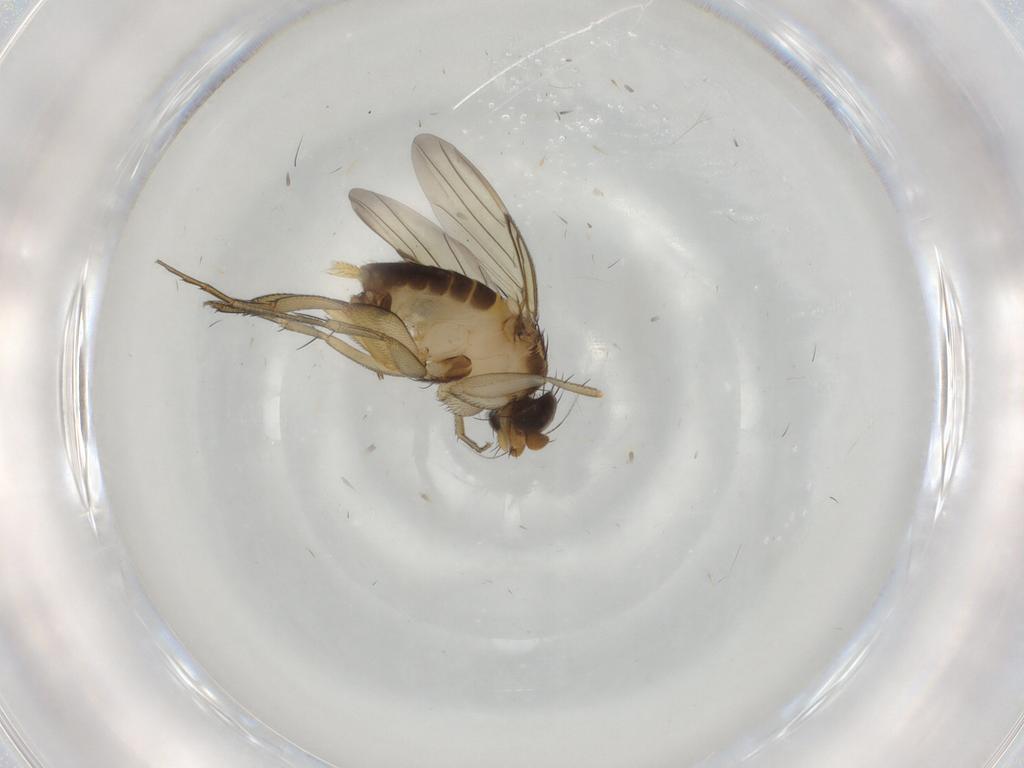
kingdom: Animalia
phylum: Arthropoda
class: Insecta
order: Diptera
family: Phoridae
